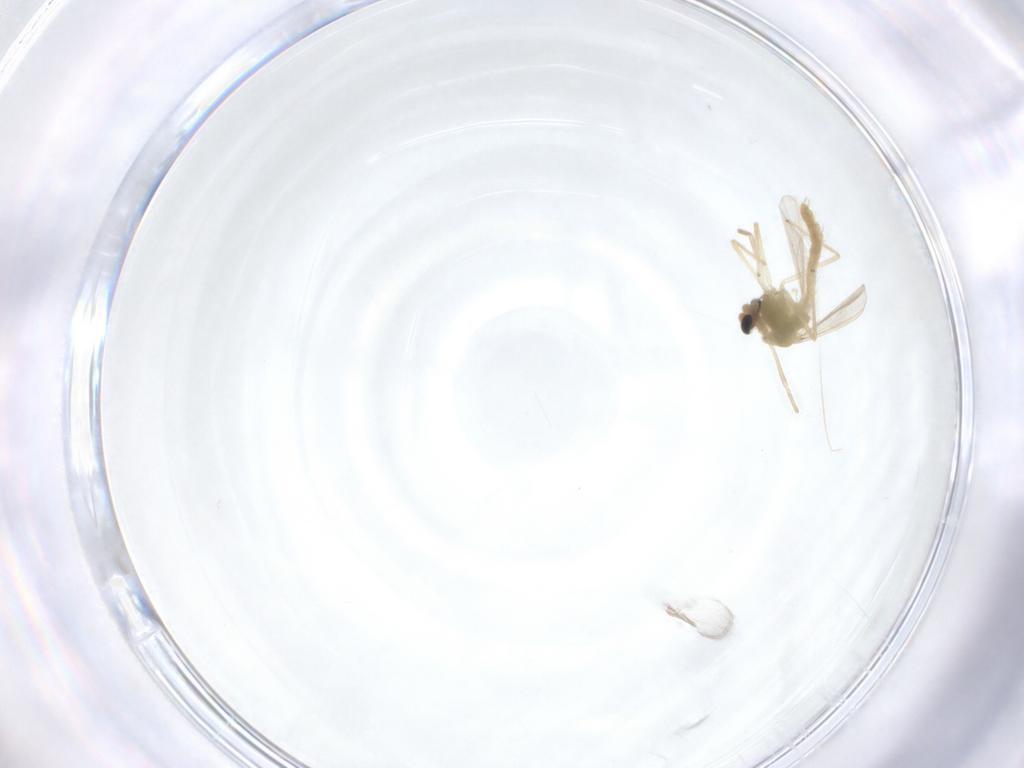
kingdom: Animalia
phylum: Arthropoda
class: Insecta
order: Diptera
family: Chironomidae
